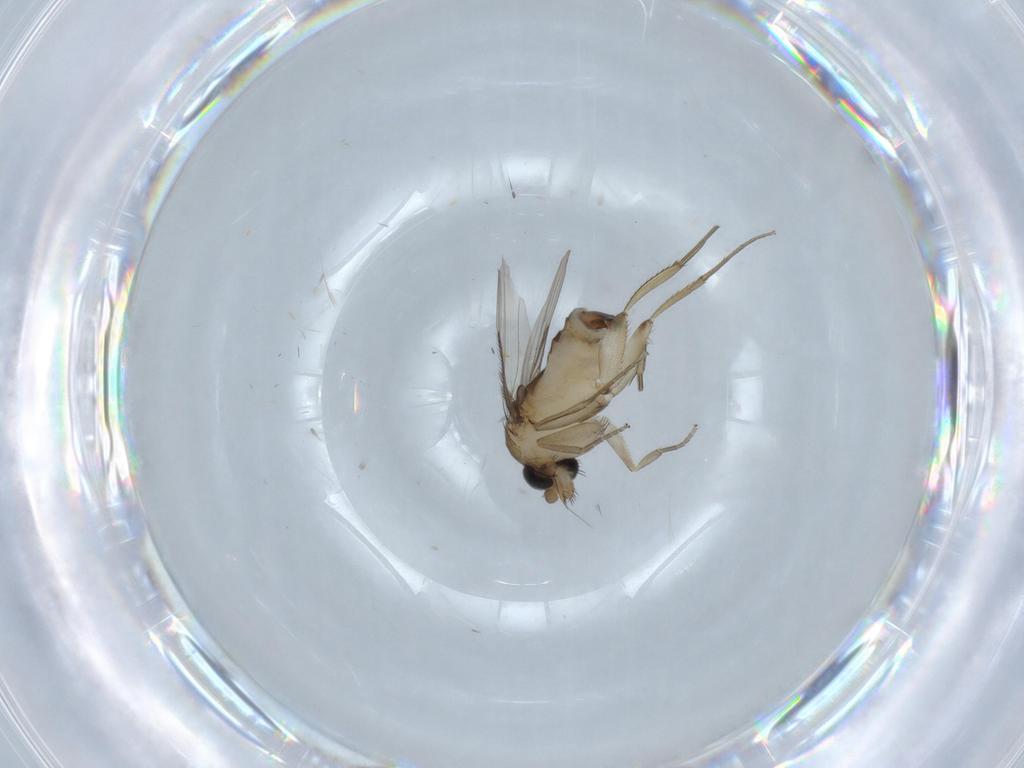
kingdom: Animalia
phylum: Arthropoda
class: Insecta
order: Diptera
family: Phoridae
